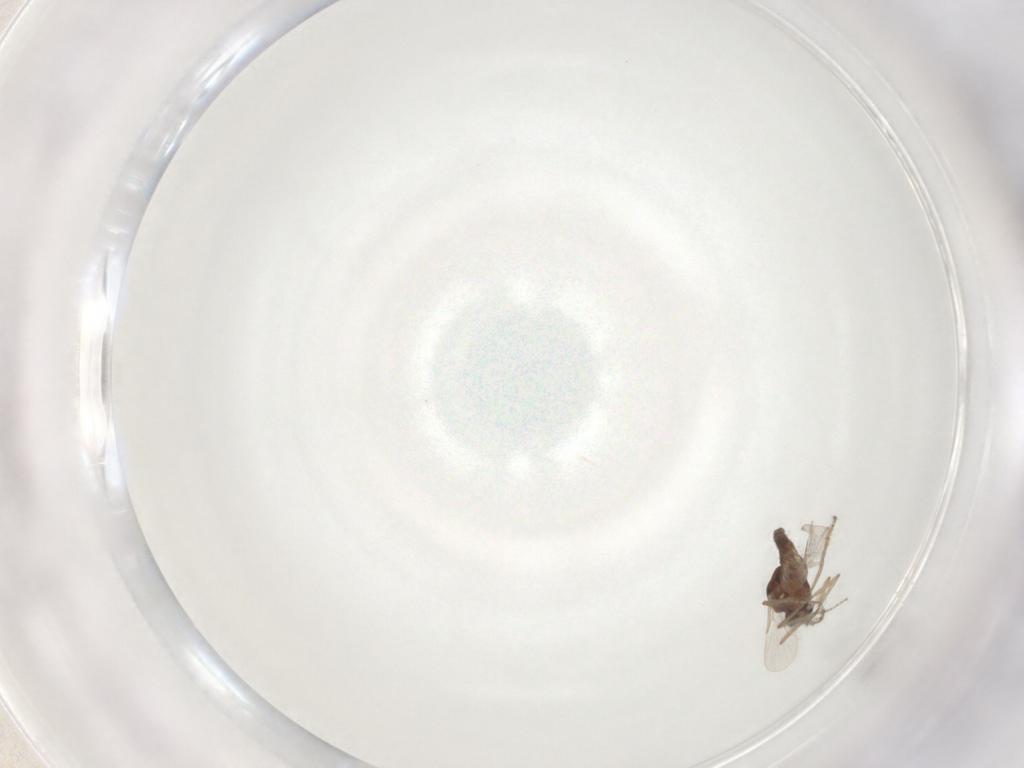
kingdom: Animalia
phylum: Arthropoda
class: Insecta
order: Diptera
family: Ceratopogonidae
